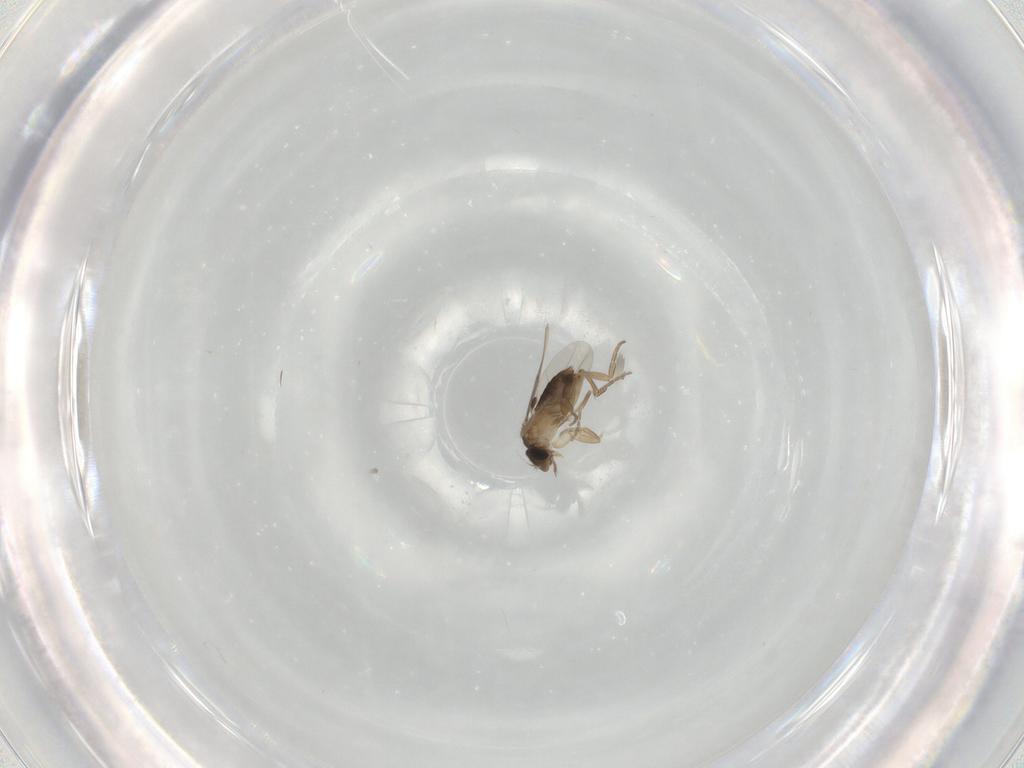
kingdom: Animalia
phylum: Arthropoda
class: Insecta
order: Diptera
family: Phoridae
